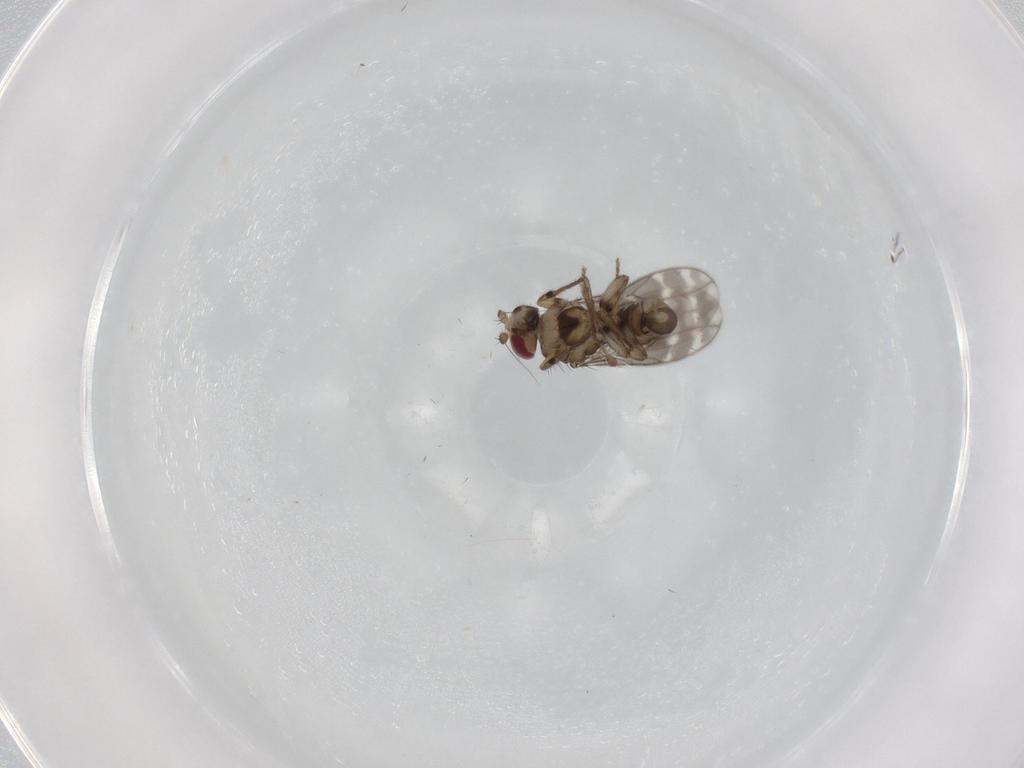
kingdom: Animalia
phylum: Arthropoda
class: Insecta
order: Diptera
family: Sciaridae
